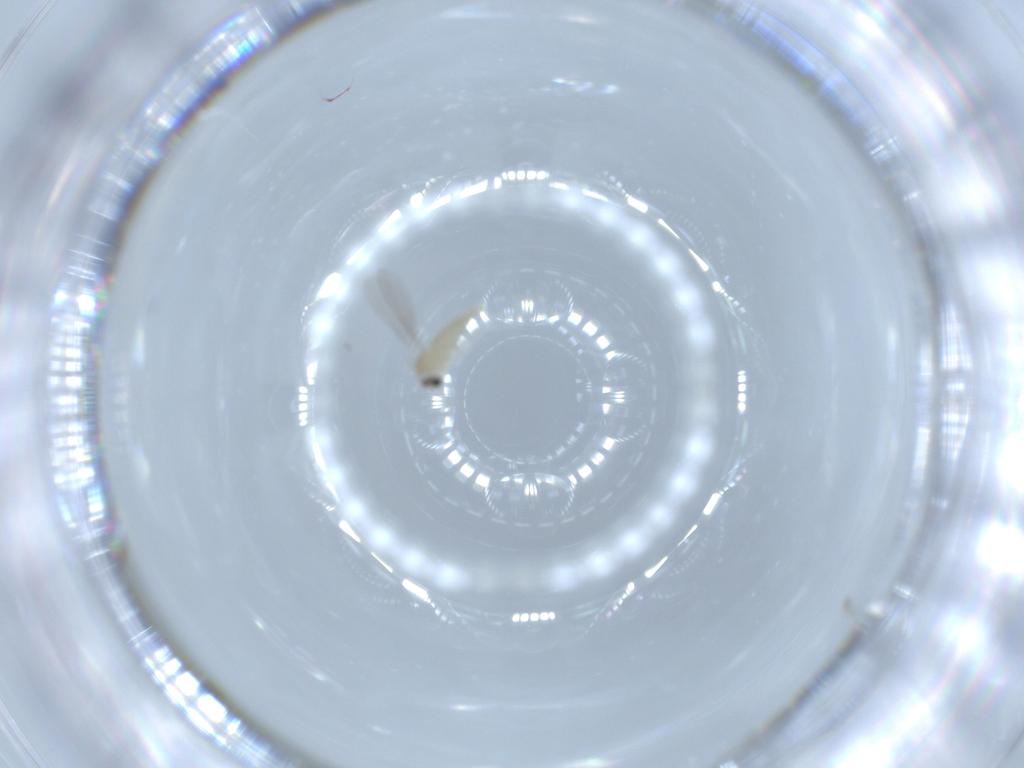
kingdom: Animalia
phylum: Arthropoda
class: Insecta
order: Diptera
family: Cecidomyiidae
